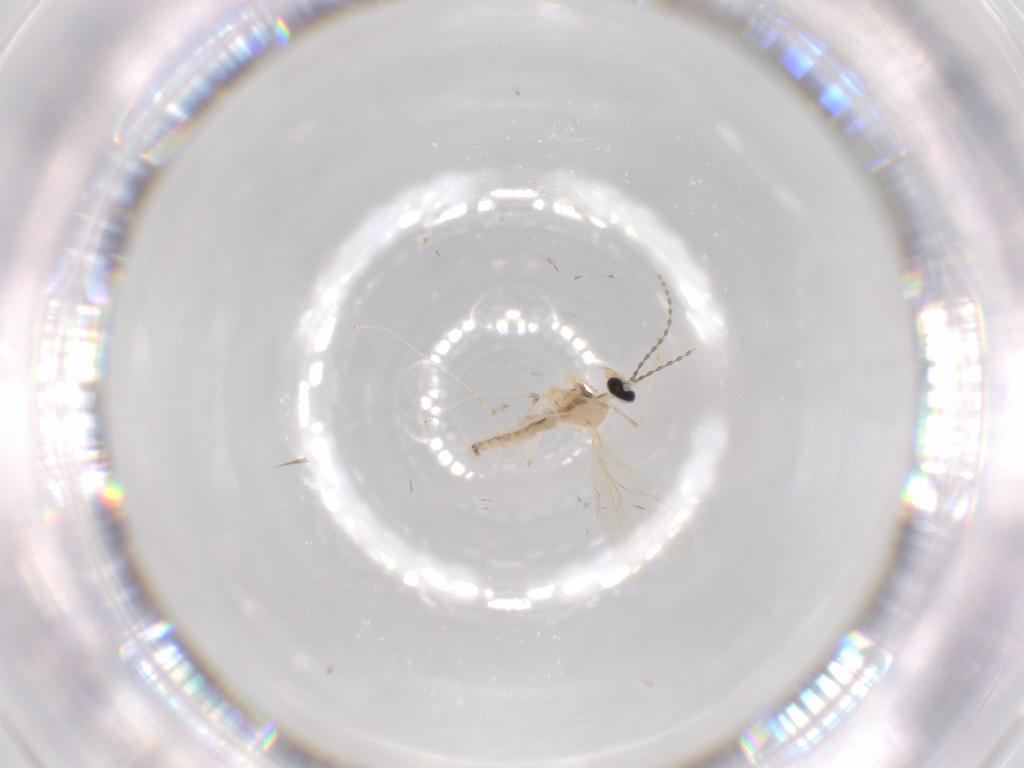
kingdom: Animalia
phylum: Arthropoda
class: Insecta
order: Diptera
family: Cecidomyiidae
